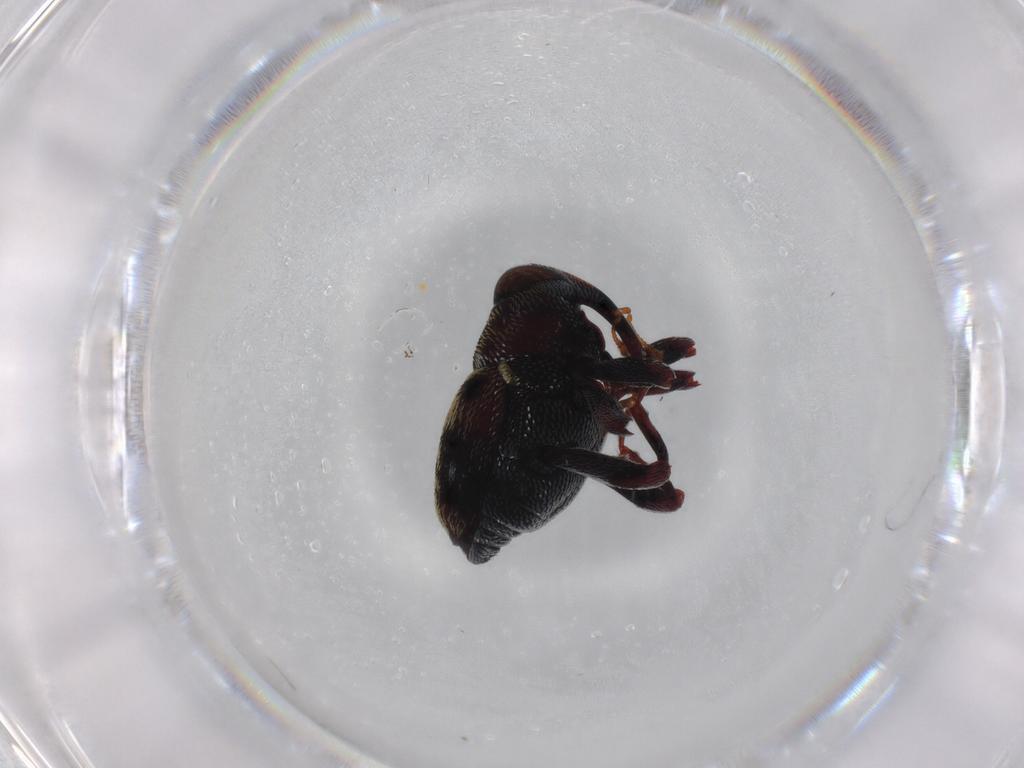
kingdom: Animalia
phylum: Arthropoda
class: Insecta
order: Coleoptera
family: Curculionidae
